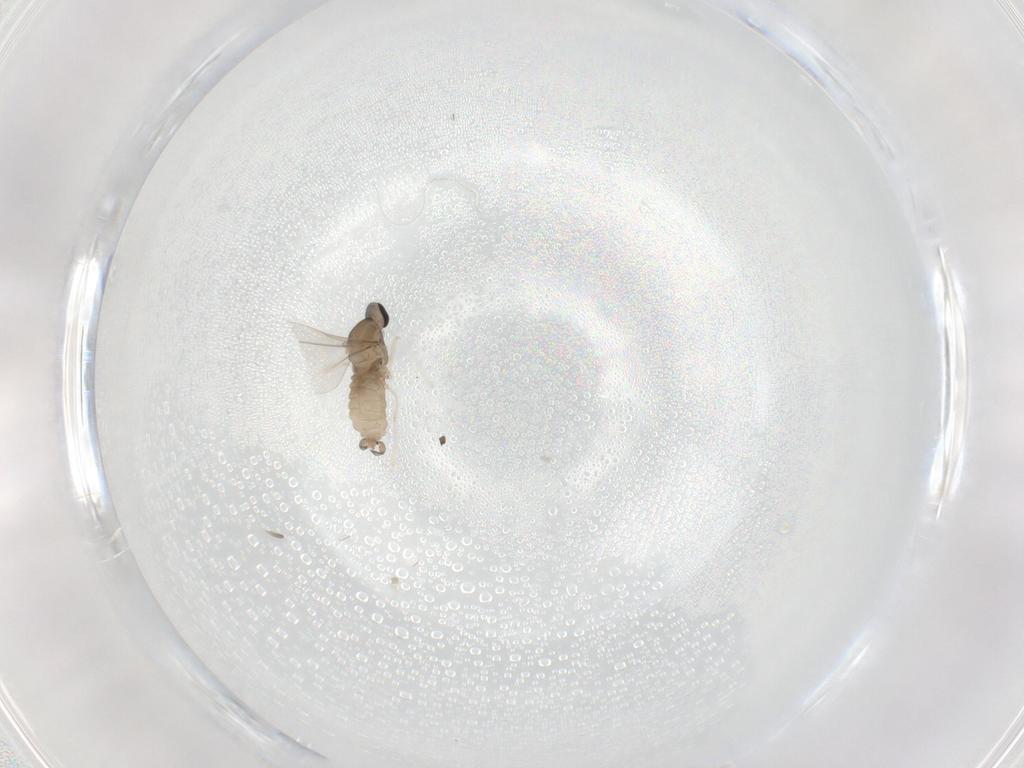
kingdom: Animalia
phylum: Arthropoda
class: Insecta
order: Diptera
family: Cecidomyiidae
